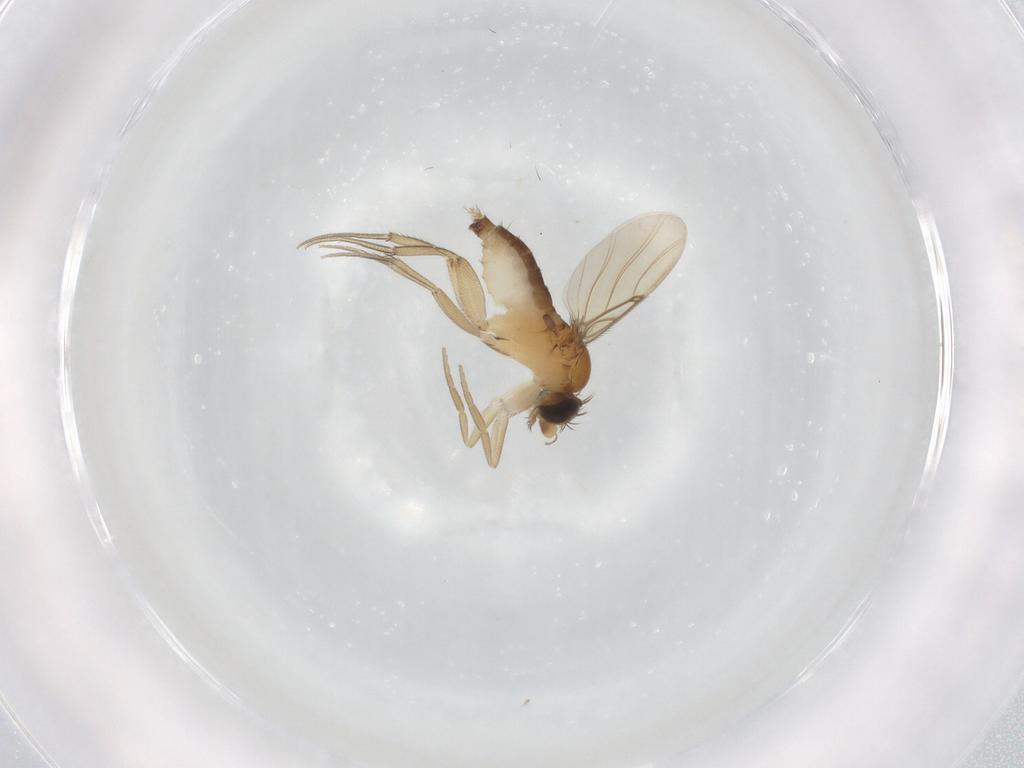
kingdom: Animalia
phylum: Arthropoda
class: Insecta
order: Diptera
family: Phoridae
